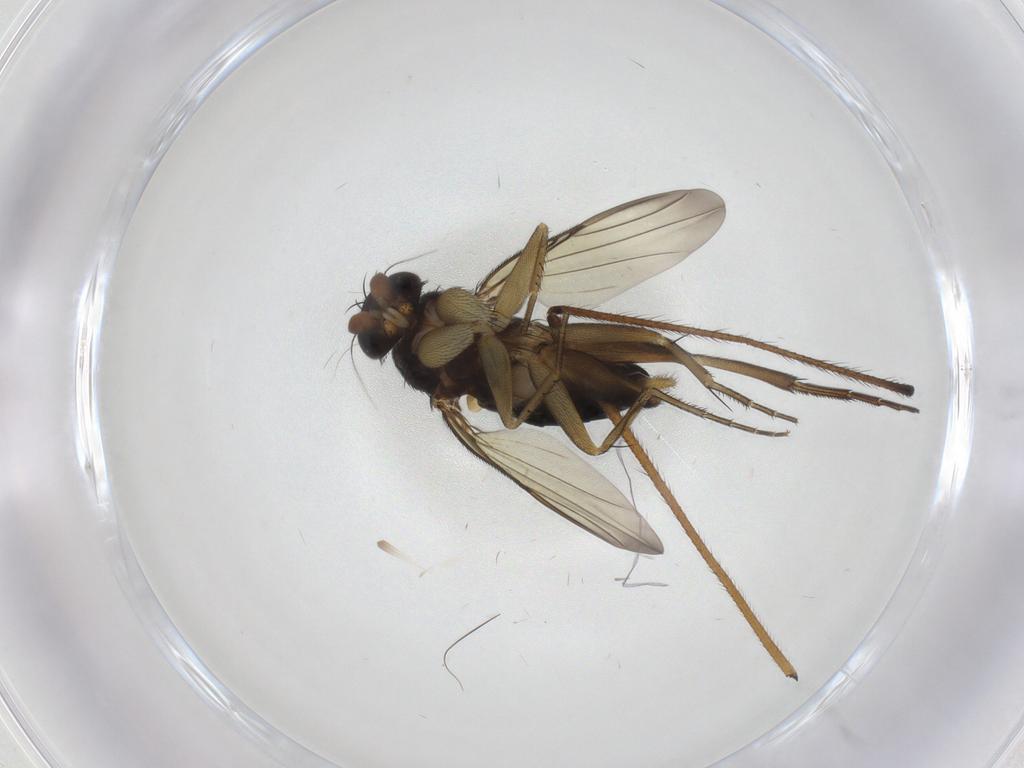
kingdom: Animalia
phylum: Arthropoda
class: Insecta
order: Diptera
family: Phoridae
